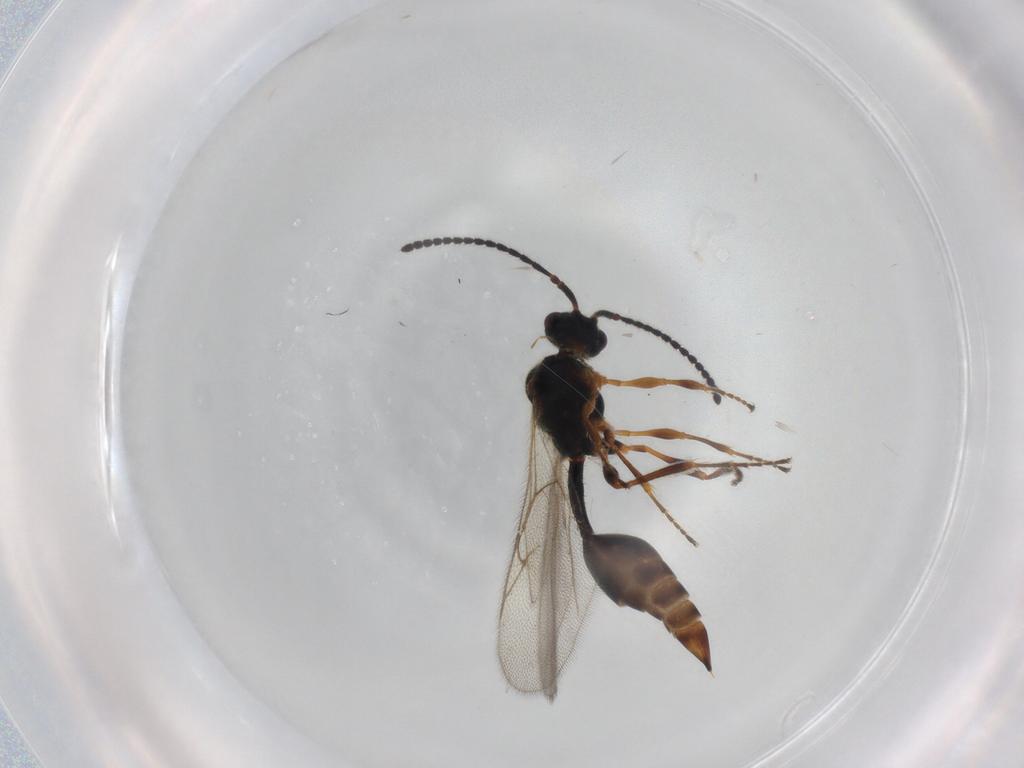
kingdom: Animalia
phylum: Arthropoda
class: Insecta
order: Hymenoptera
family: Diapriidae
